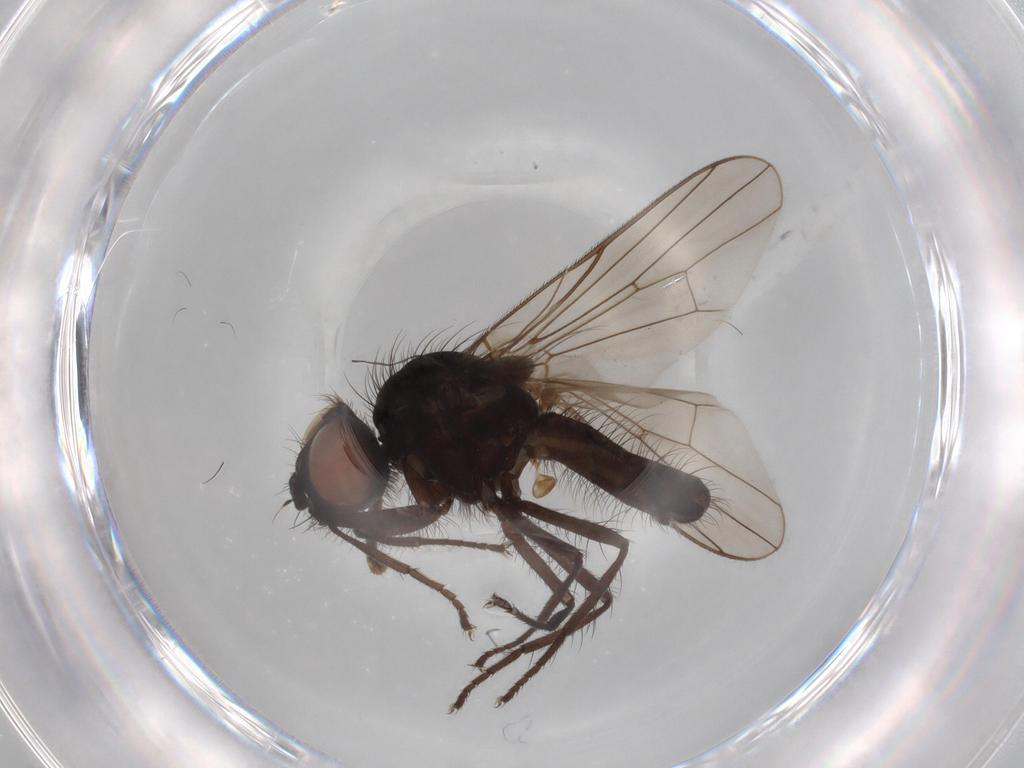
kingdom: Animalia
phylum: Arthropoda
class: Insecta
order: Diptera
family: Anthomyiidae
